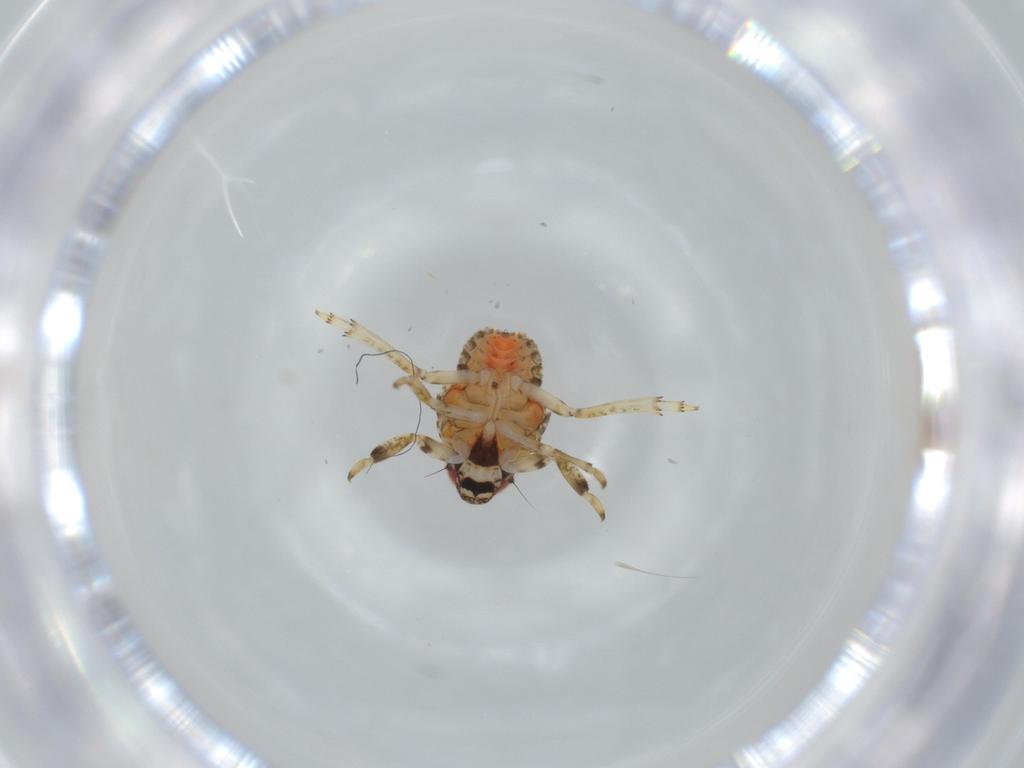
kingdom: Animalia
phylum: Arthropoda
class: Insecta
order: Hemiptera
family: Issidae
